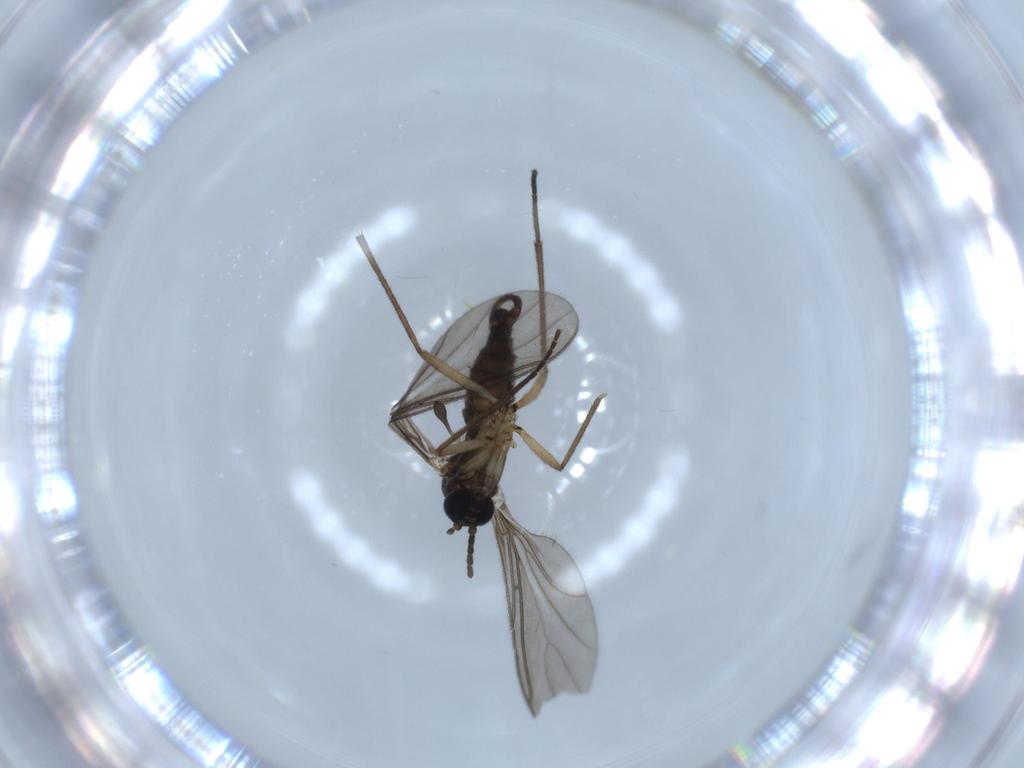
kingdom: Animalia
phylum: Arthropoda
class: Insecta
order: Diptera
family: Sciaridae
